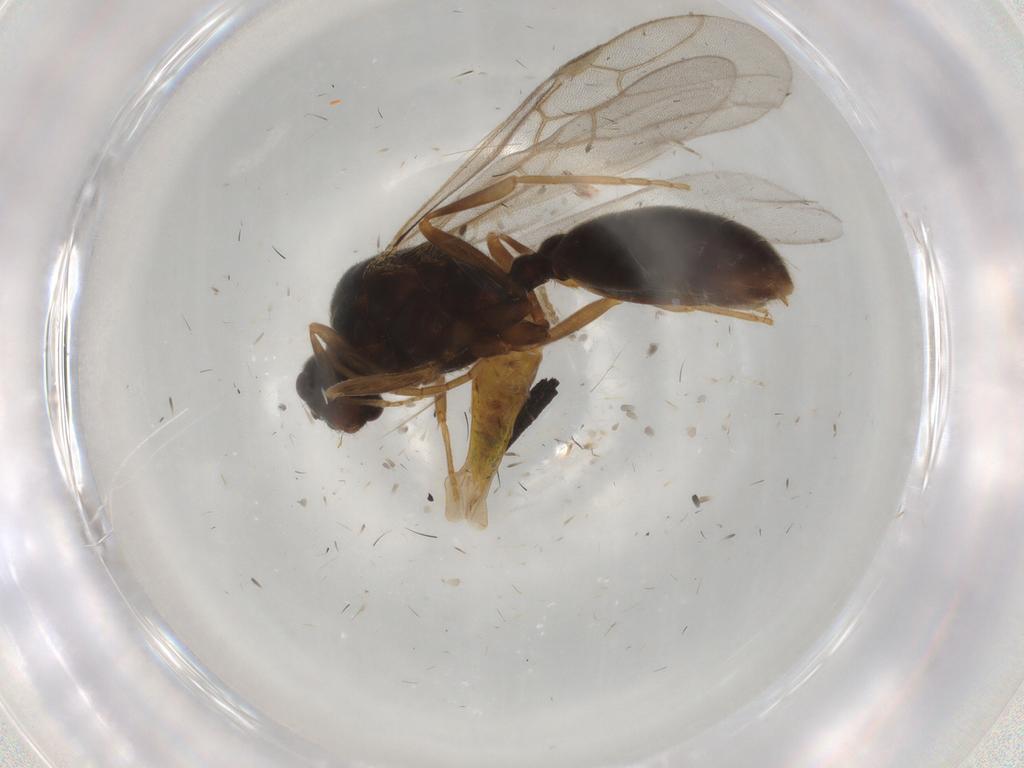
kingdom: Animalia
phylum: Arthropoda
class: Insecta
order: Hymenoptera
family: Formicidae
